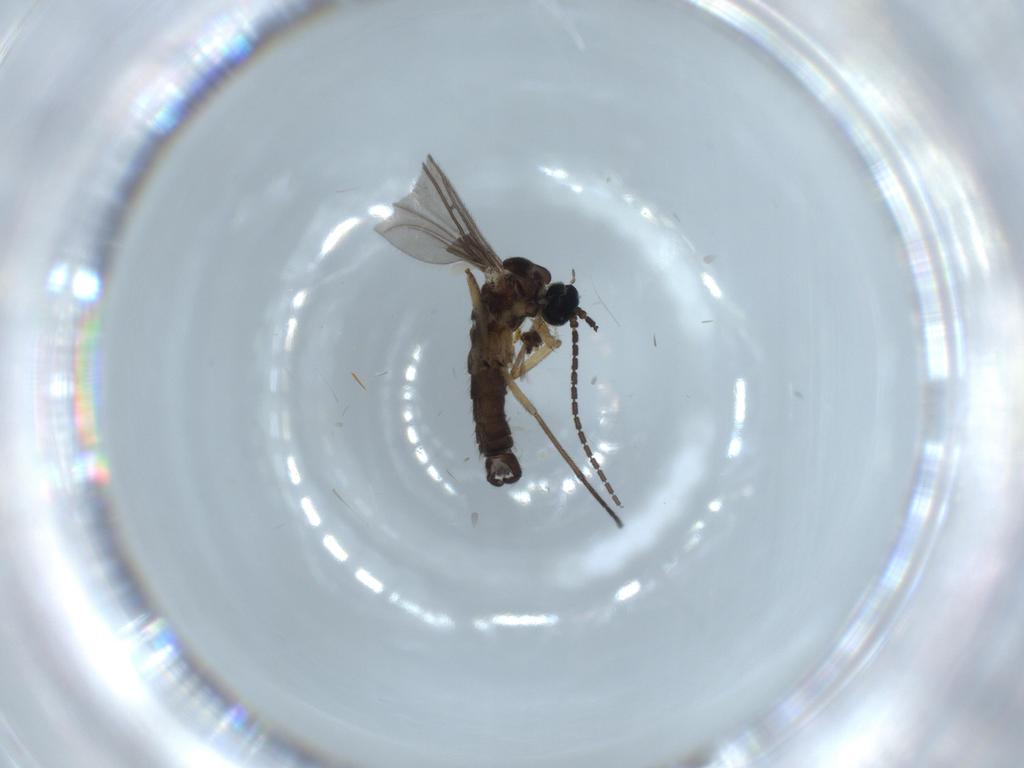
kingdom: Animalia
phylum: Arthropoda
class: Insecta
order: Diptera
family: Sciaridae
